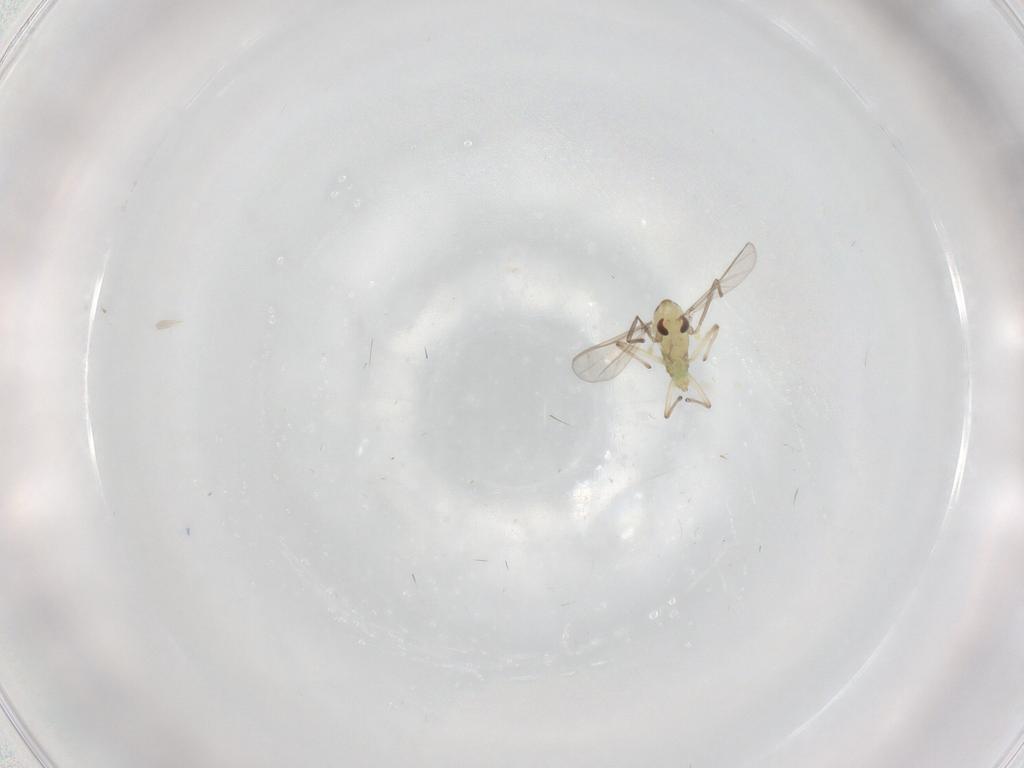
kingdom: Animalia
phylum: Arthropoda
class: Insecta
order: Diptera
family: Chironomidae
